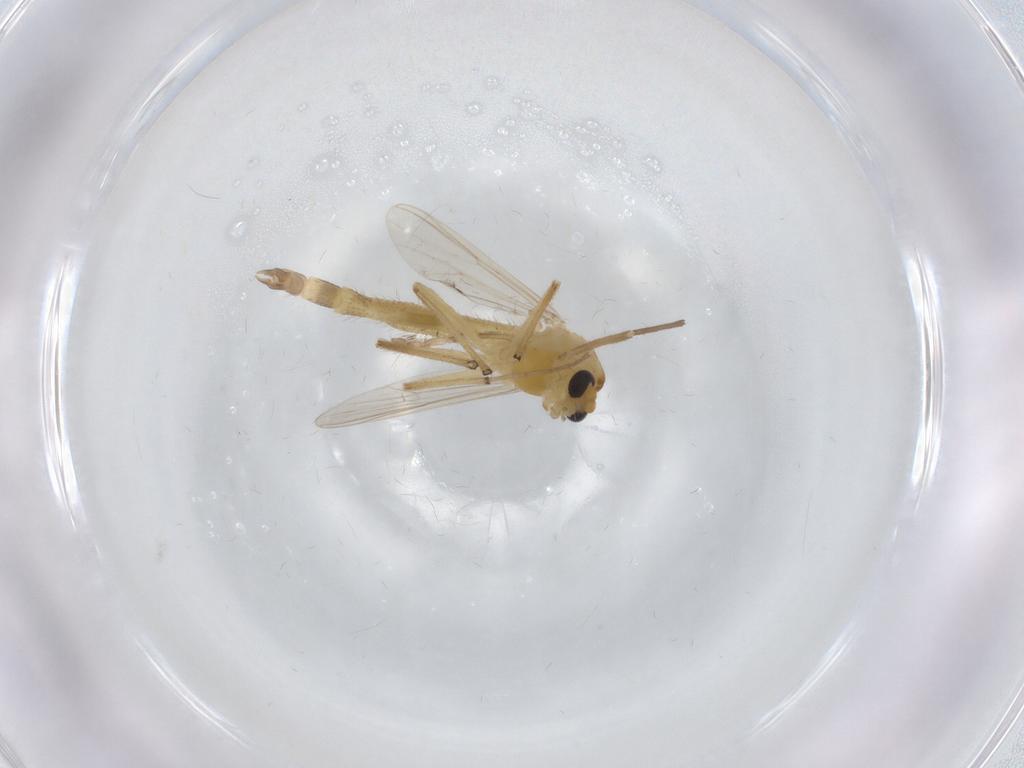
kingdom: Animalia
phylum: Arthropoda
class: Insecta
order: Diptera
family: Chironomidae
